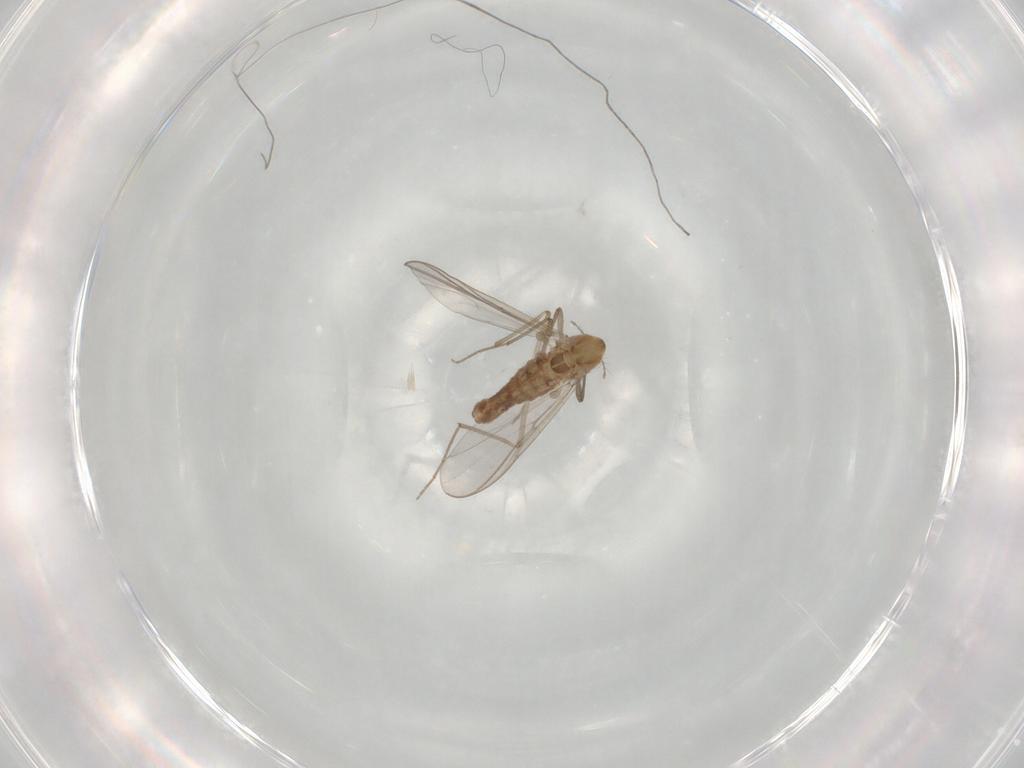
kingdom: Animalia
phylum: Arthropoda
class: Insecta
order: Diptera
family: Chironomidae
